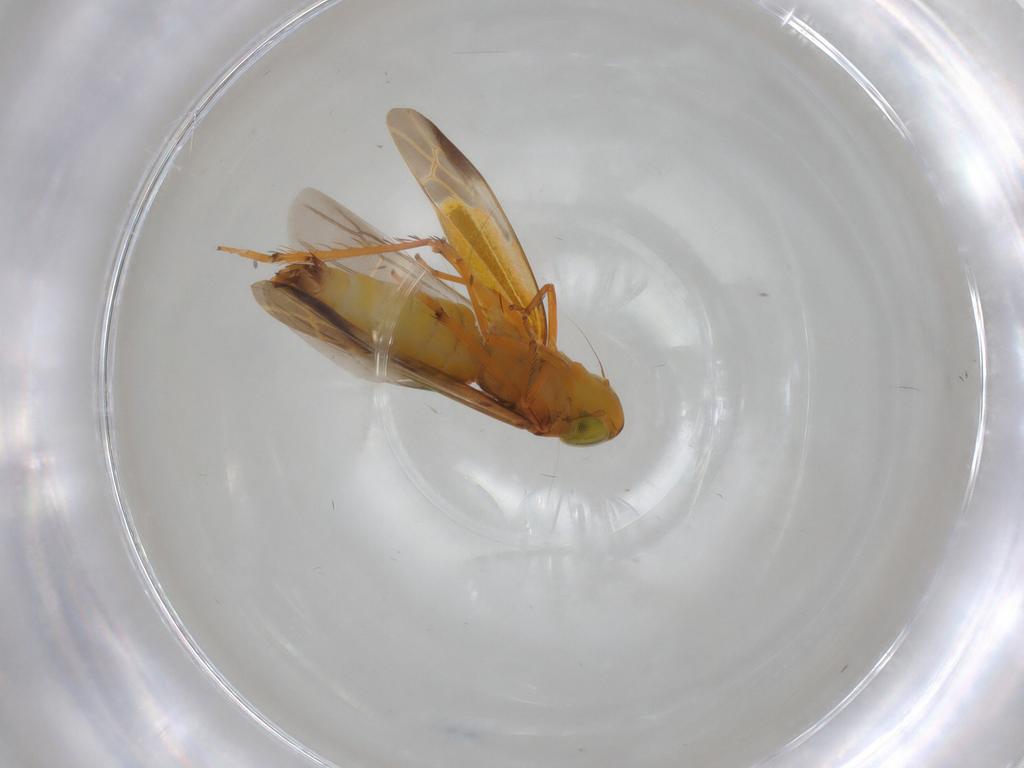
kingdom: Animalia
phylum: Arthropoda
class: Insecta
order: Hemiptera
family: Cicadellidae
